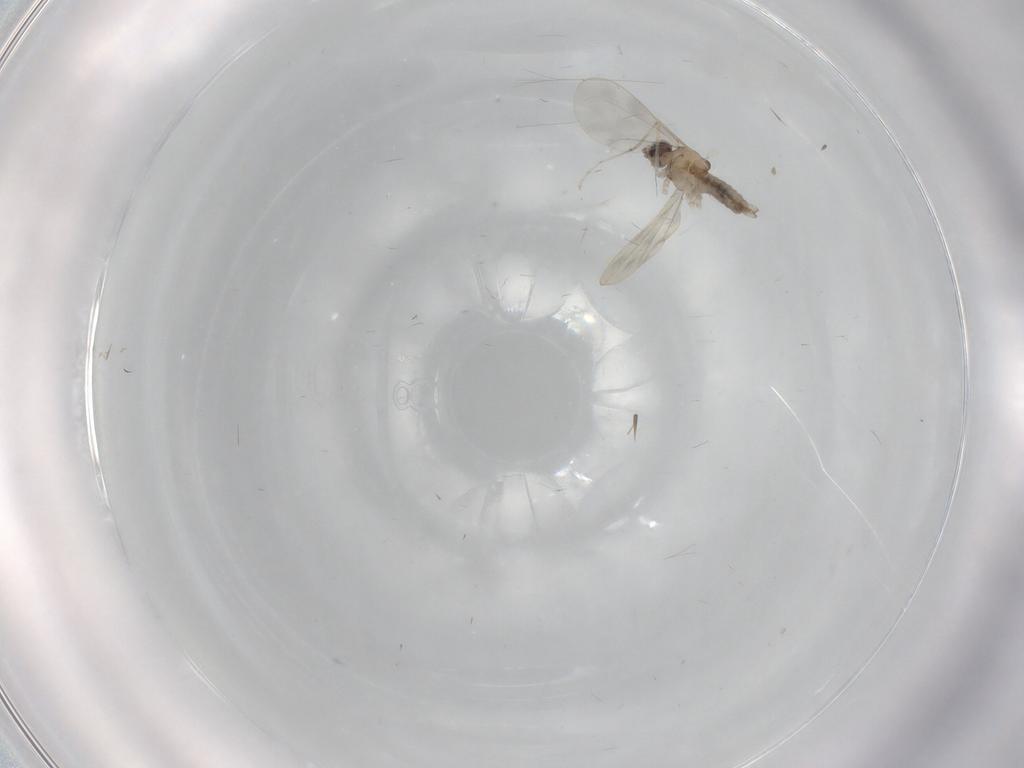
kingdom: Animalia
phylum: Arthropoda
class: Insecta
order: Diptera
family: Cecidomyiidae
